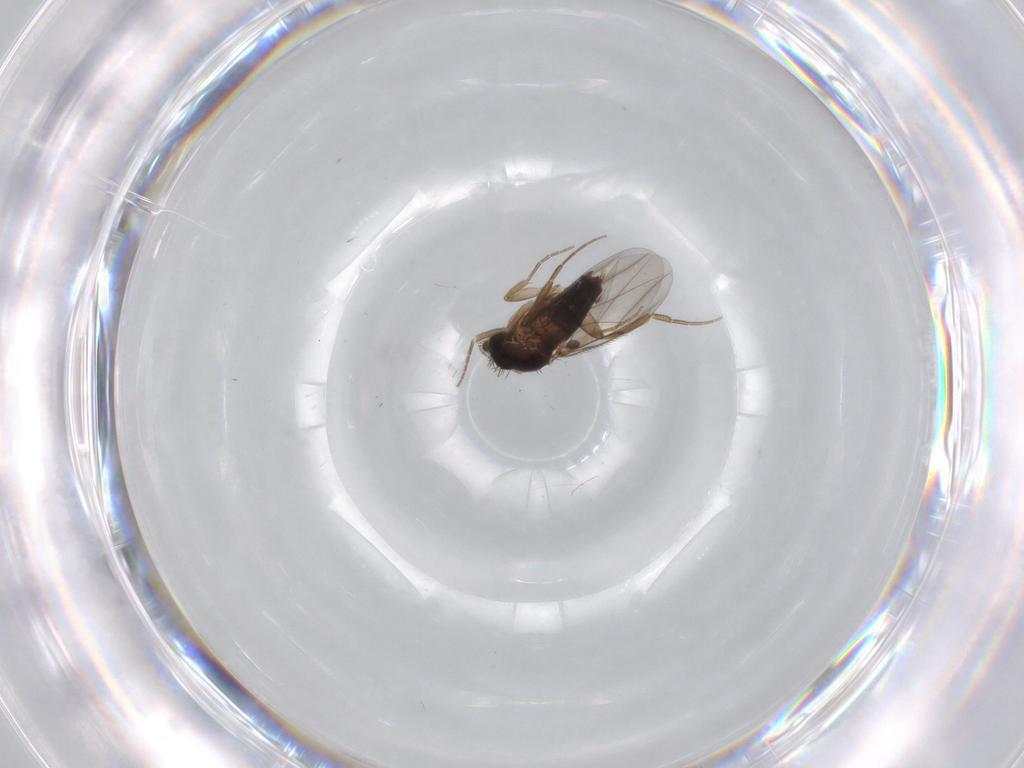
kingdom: Animalia
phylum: Arthropoda
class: Insecta
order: Diptera
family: Phoridae
